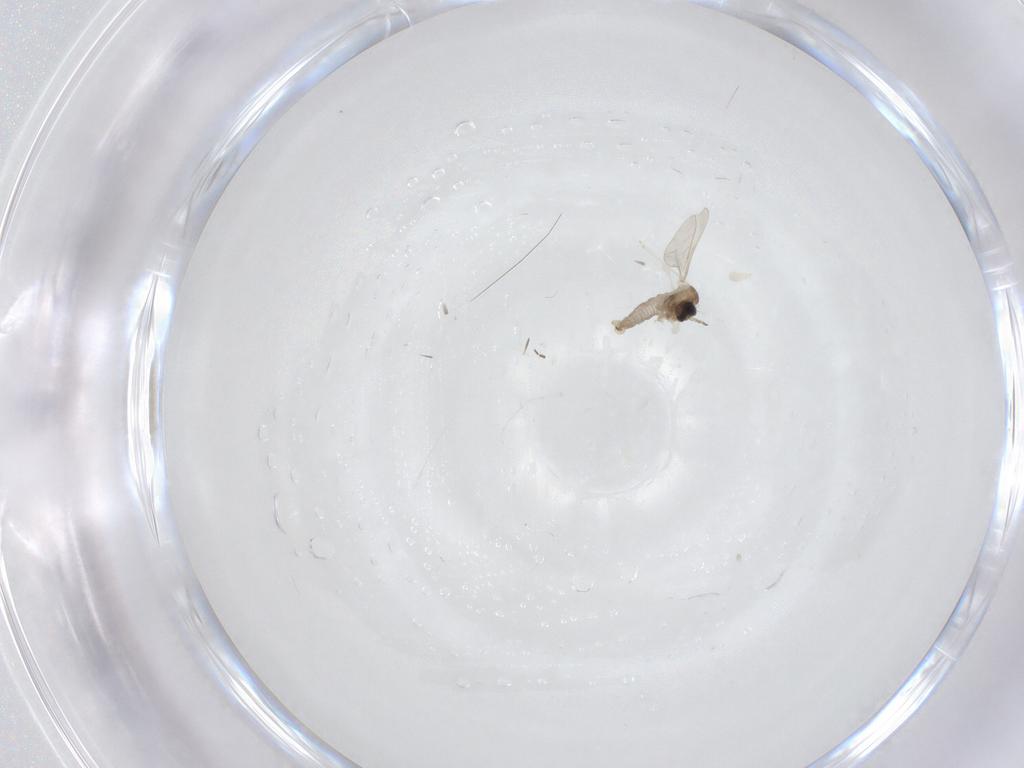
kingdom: Animalia
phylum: Arthropoda
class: Insecta
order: Diptera
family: Cecidomyiidae
